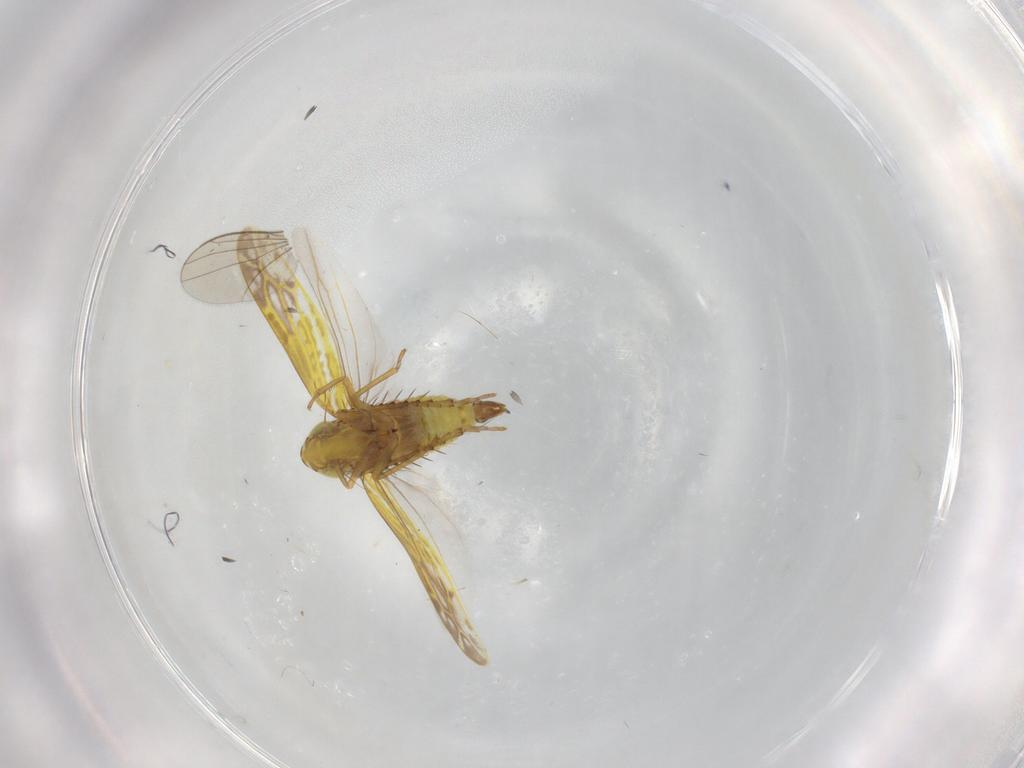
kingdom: Animalia
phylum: Arthropoda
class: Insecta
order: Hemiptera
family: Cicadellidae
